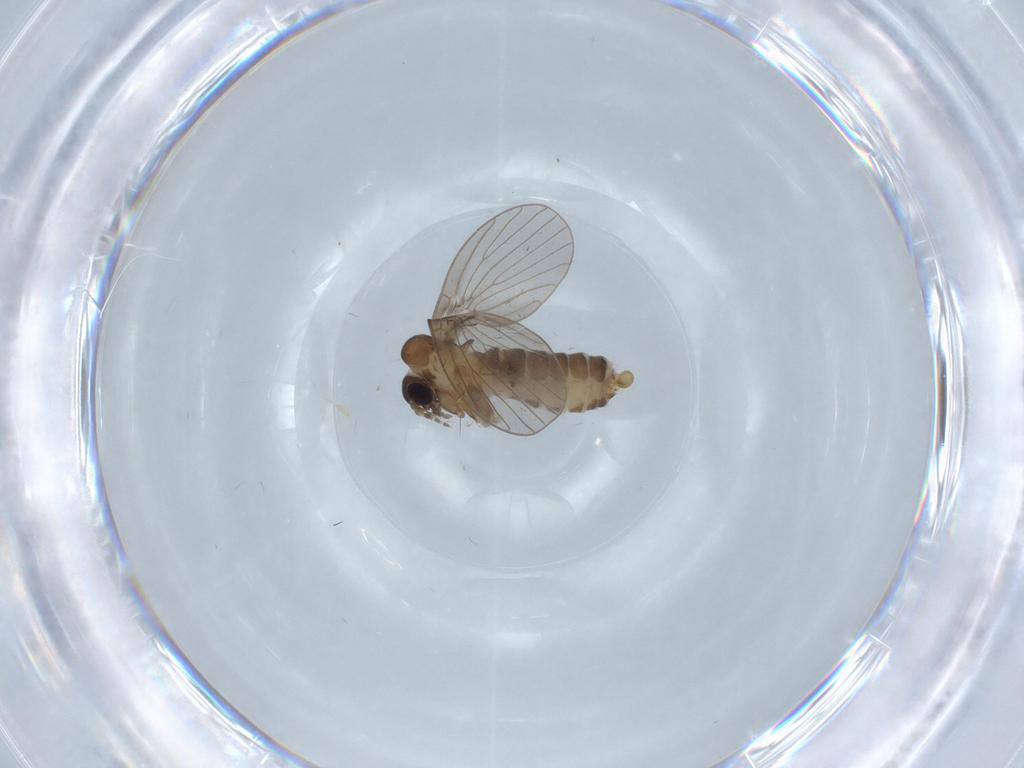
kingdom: Animalia
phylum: Arthropoda
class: Insecta
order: Diptera
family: Psychodidae
